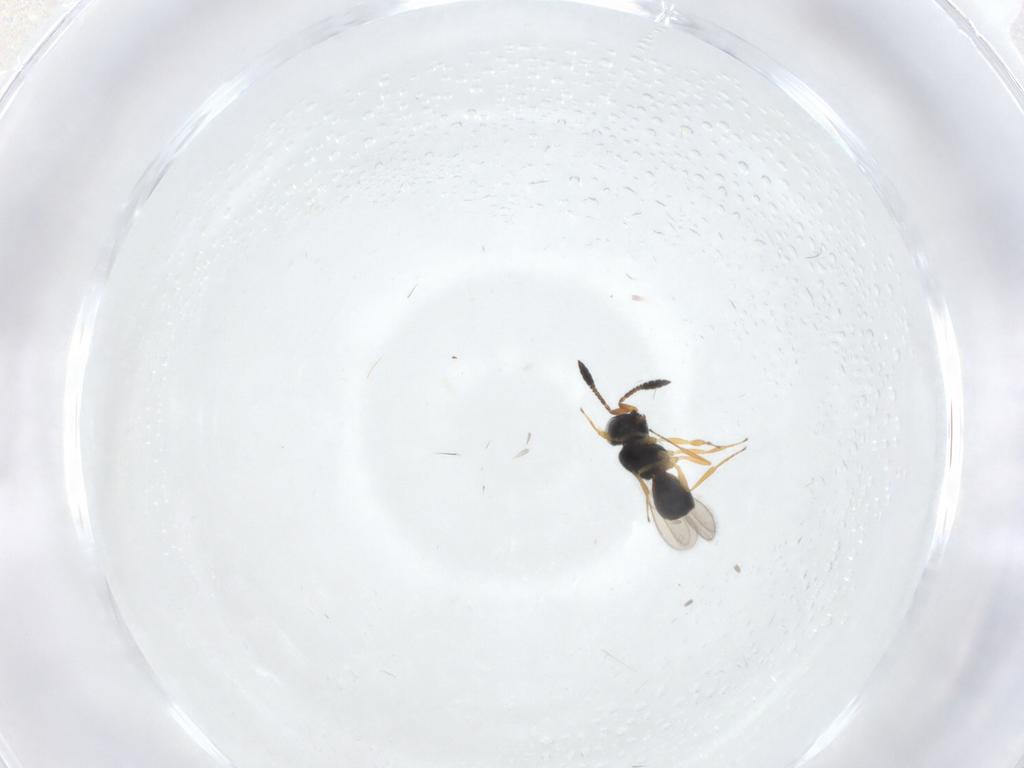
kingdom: Animalia
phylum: Arthropoda
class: Insecta
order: Hymenoptera
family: Scelionidae
